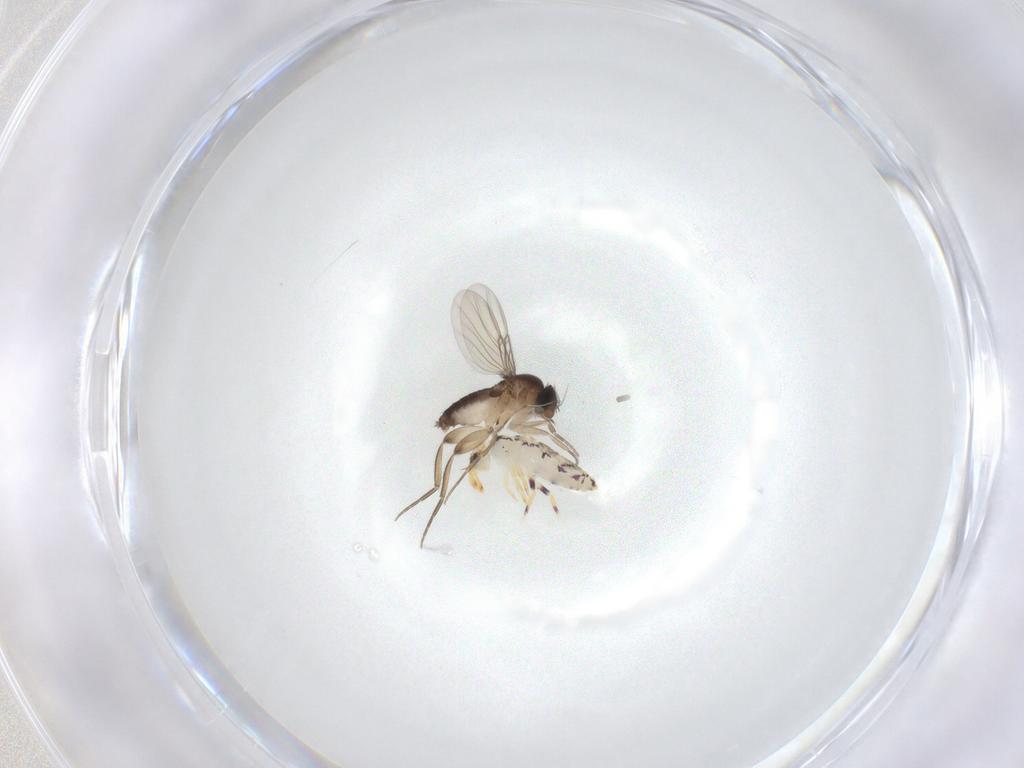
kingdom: Animalia
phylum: Arthropoda
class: Insecta
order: Diptera
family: Phoridae
